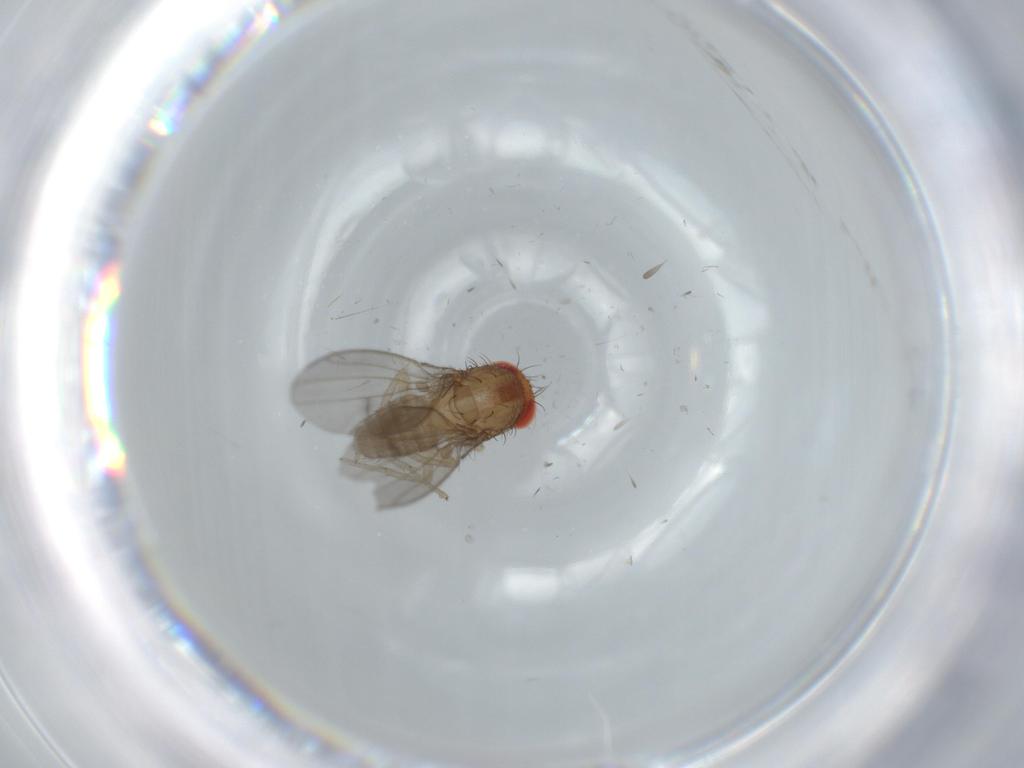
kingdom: Animalia
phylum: Arthropoda
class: Insecta
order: Diptera
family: Drosophilidae
